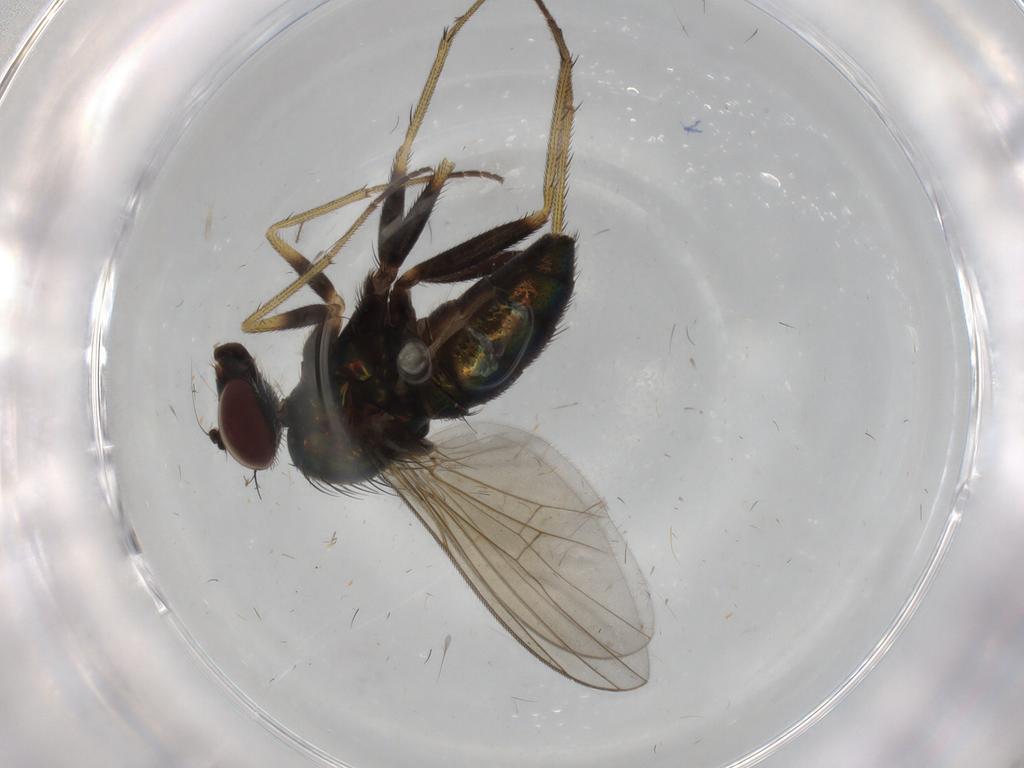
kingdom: Animalia
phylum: Arthropoda
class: Insecta
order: Diptera
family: Dolichopodidae
